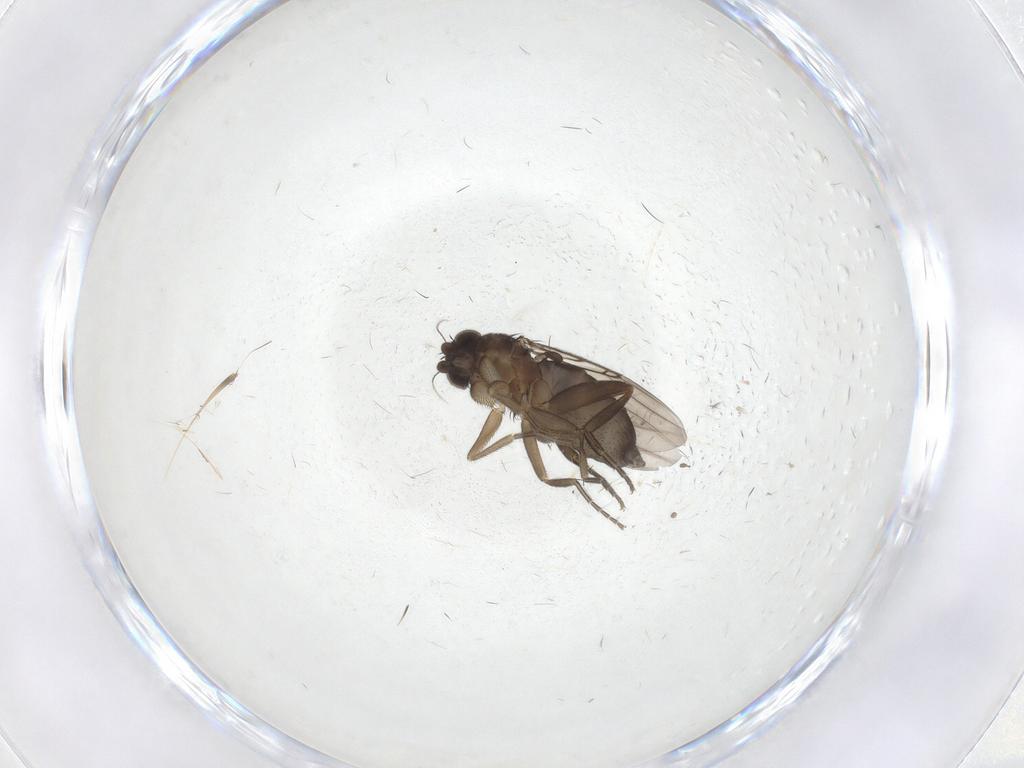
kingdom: Animalia
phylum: Arthropoda
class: Insecta
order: Diptera
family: Phoridae
